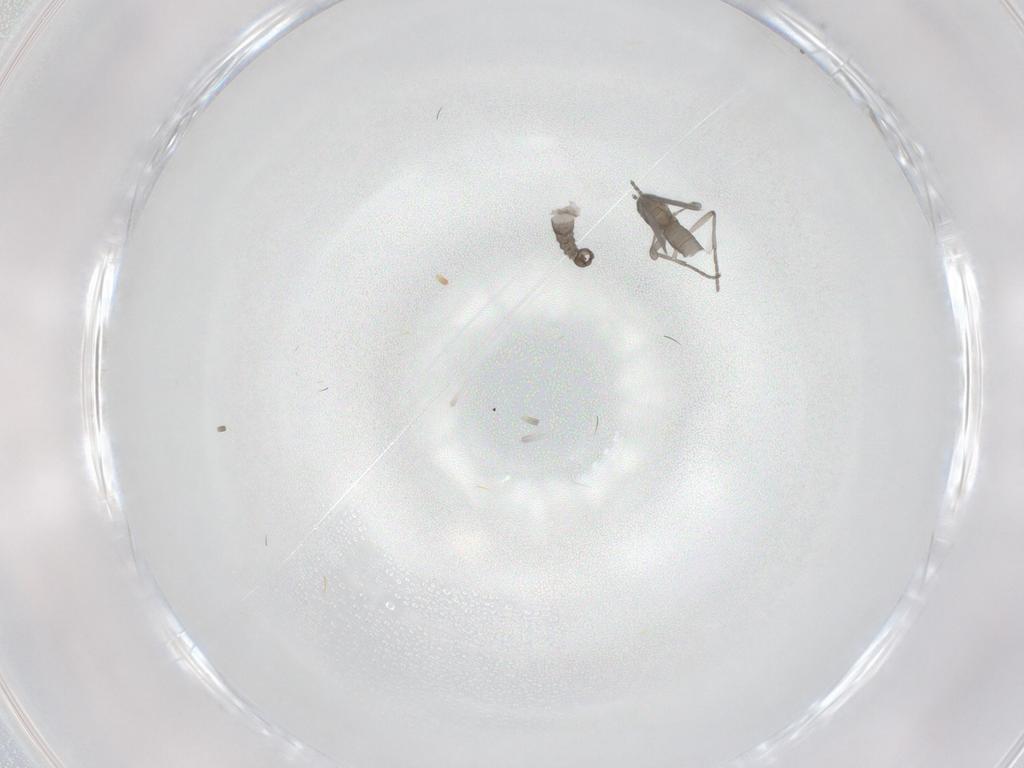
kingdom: Animalia
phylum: Arthropoda
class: Insecta
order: Diptera
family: Sciaridae
